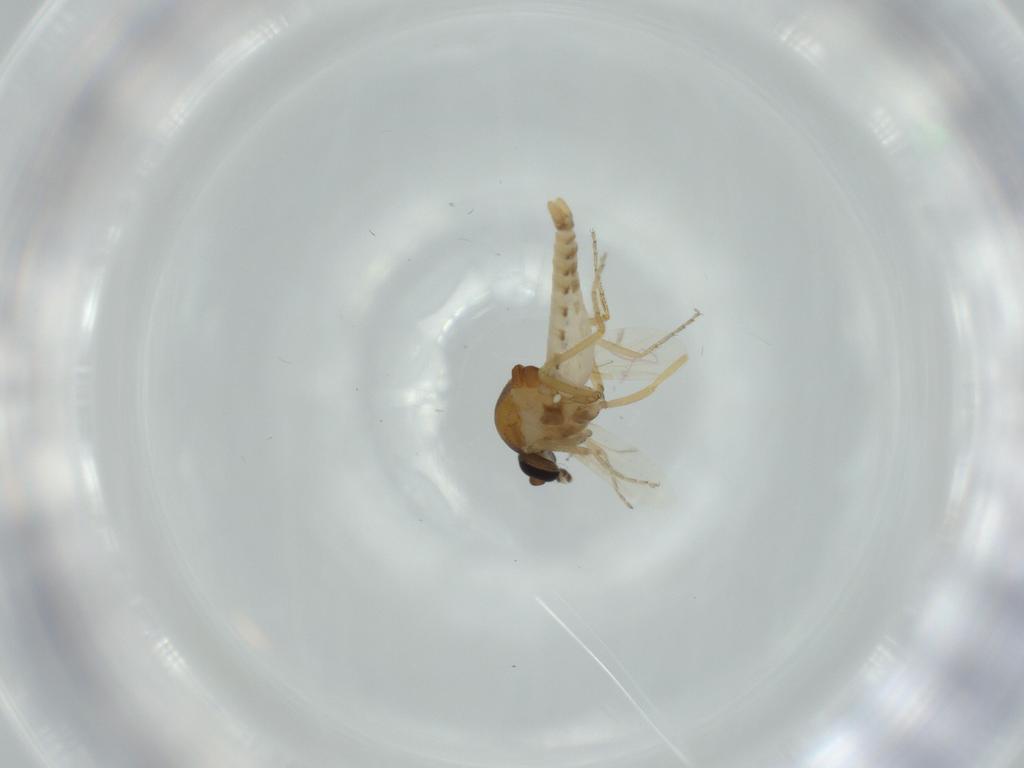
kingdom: Animalia
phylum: Arthropoda
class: Insecta
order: Diptera
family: Ceratopogonidae
